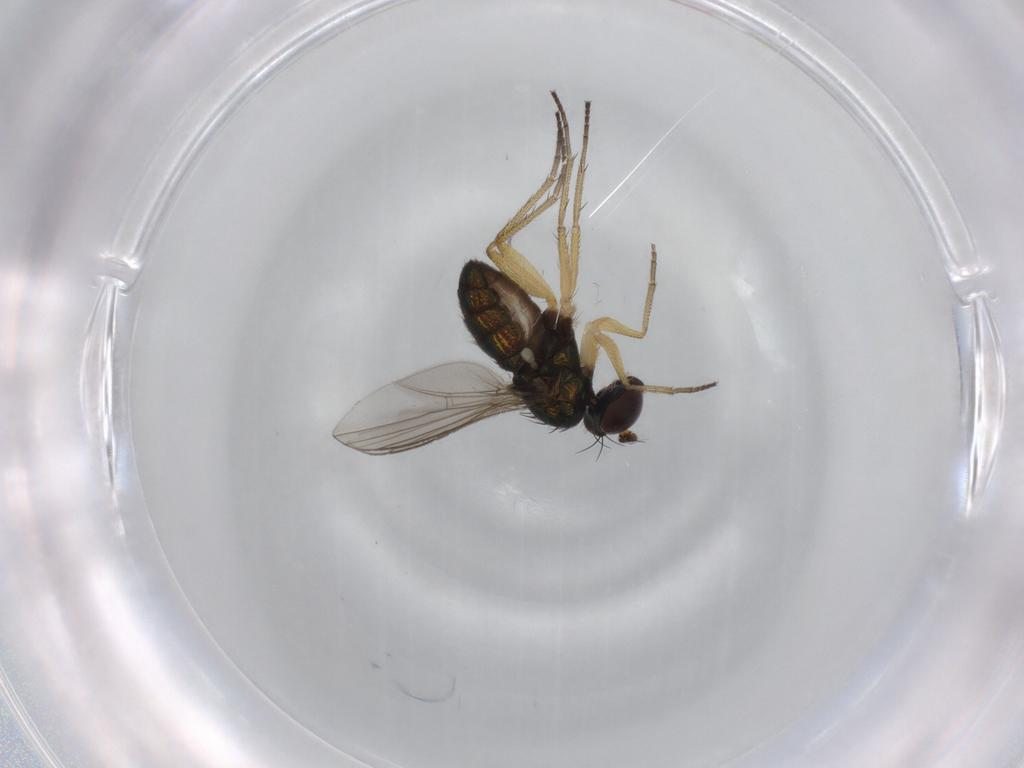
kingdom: Animalia
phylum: Arthropoda
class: Insecta
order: Diptera
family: Dolichopodidae
